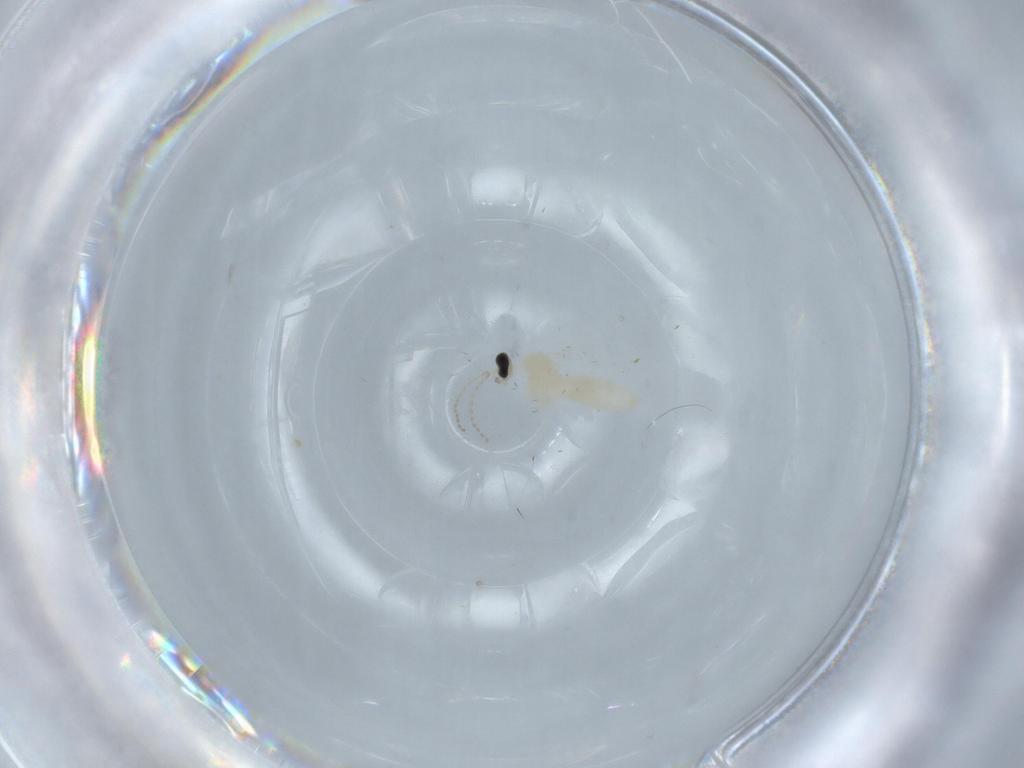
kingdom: Animalia
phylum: Arthropoda
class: Insecta
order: Diptera
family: Cecidomyiidae
